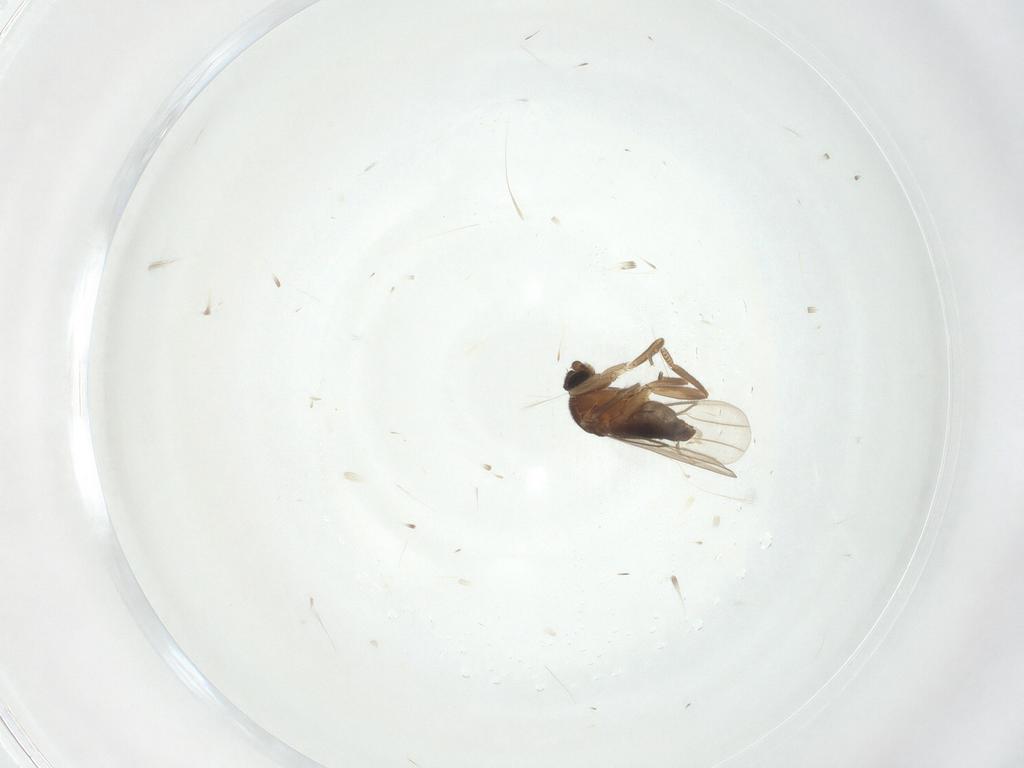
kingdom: Animalia
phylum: Arthropoda
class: Insecta
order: Diptera
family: Phoridae
